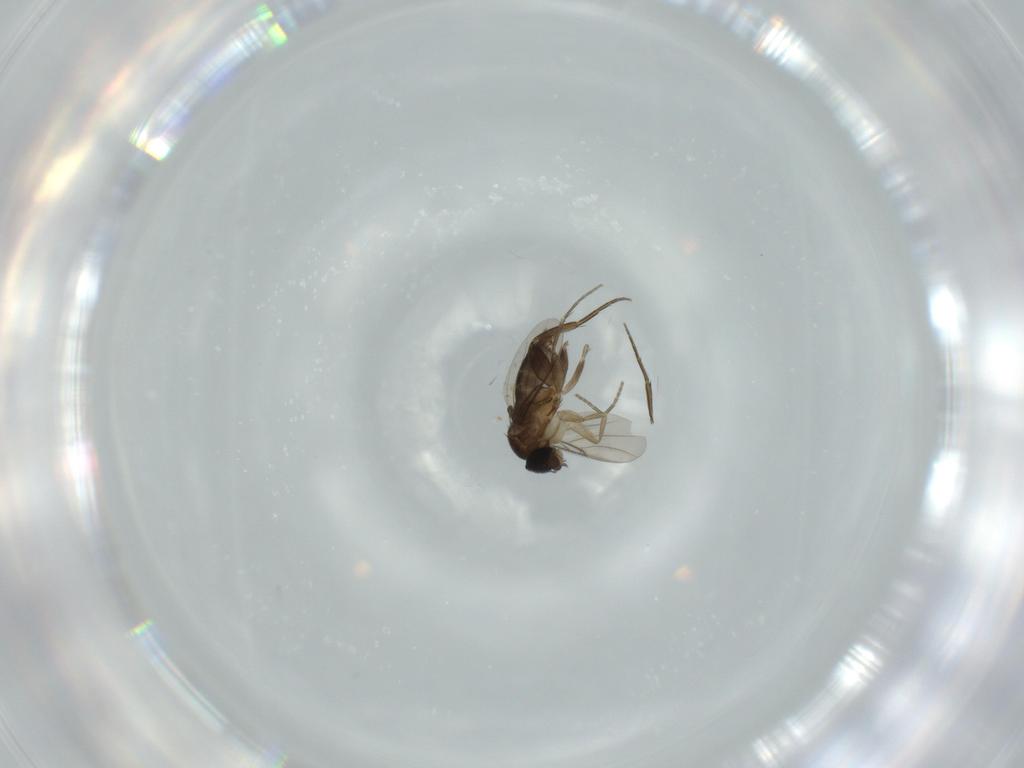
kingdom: Animalia
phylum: Arthropoda
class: Insecta
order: Diptera
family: Phoridae
